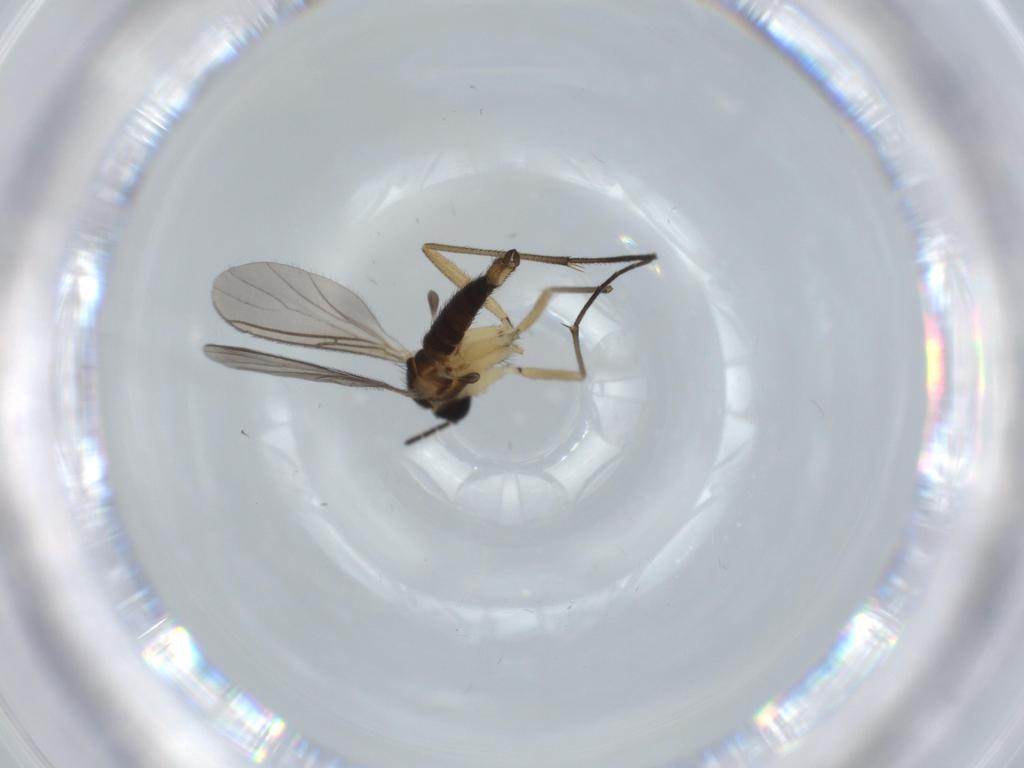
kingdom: Animalia
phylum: Arthropoda
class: Insecta
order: Diptera
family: Sciaridae
